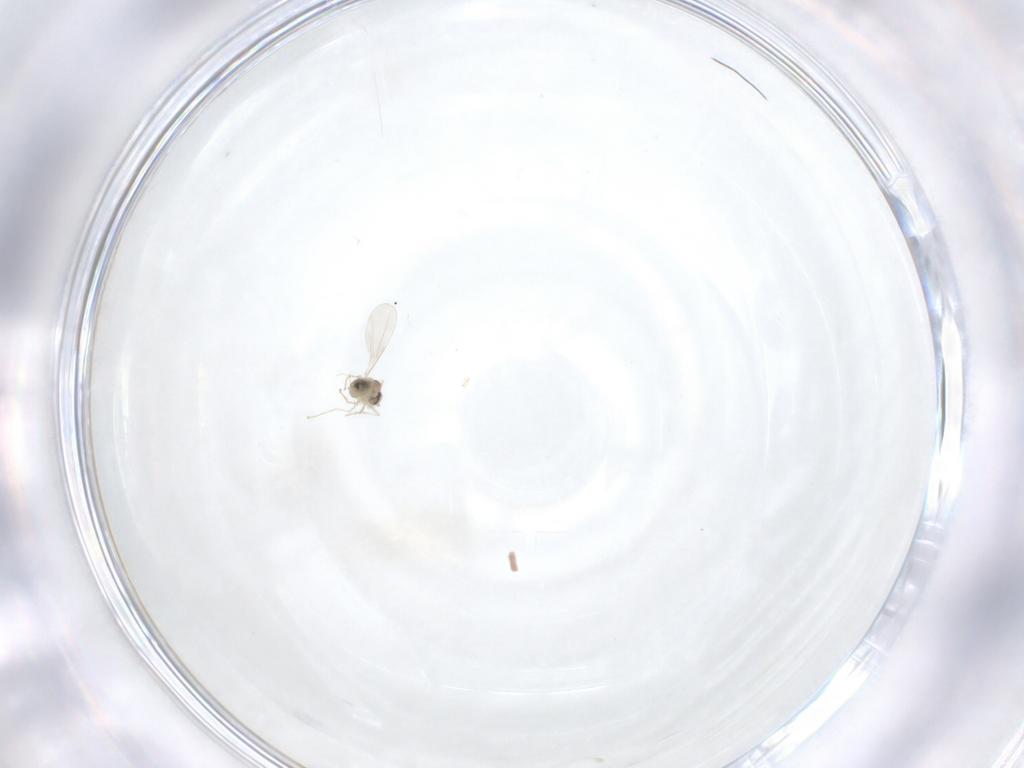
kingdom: Animalia
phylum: Arthropoda
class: Insecta
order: Diptera
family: Cecidomyiidae
